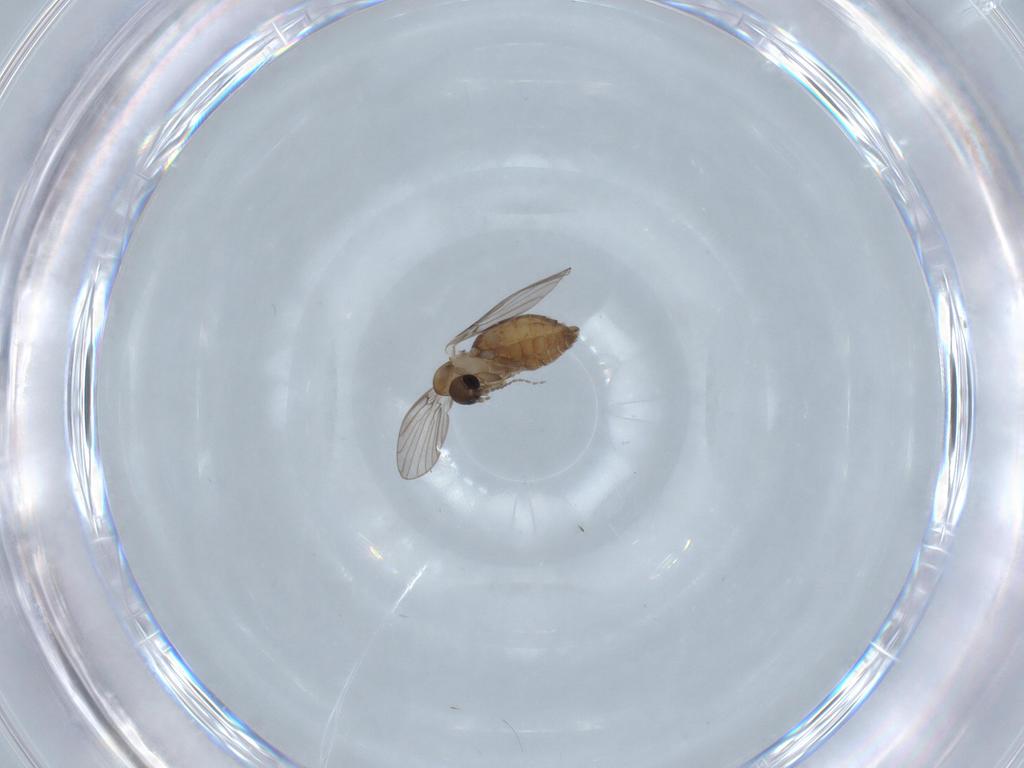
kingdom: Animalia
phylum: Arthropoda
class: Insecta
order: Diptera
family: Psychodidae
